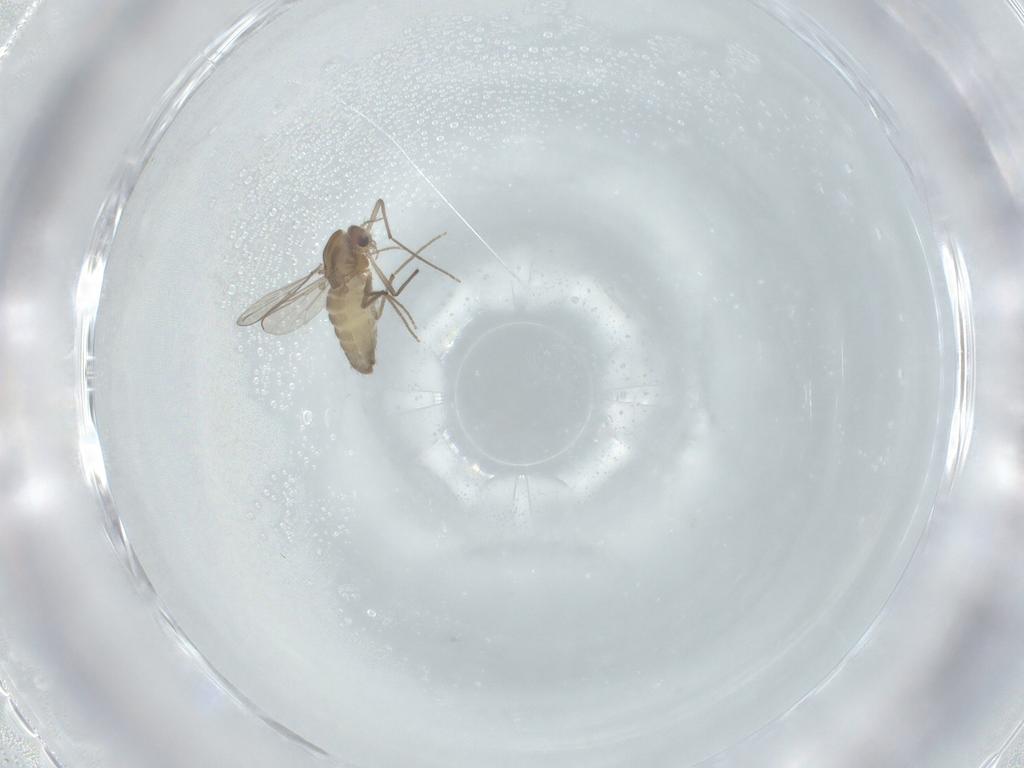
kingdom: Animalia
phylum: Arthropoda
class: Insecta
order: Diptera
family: Chironomidae
